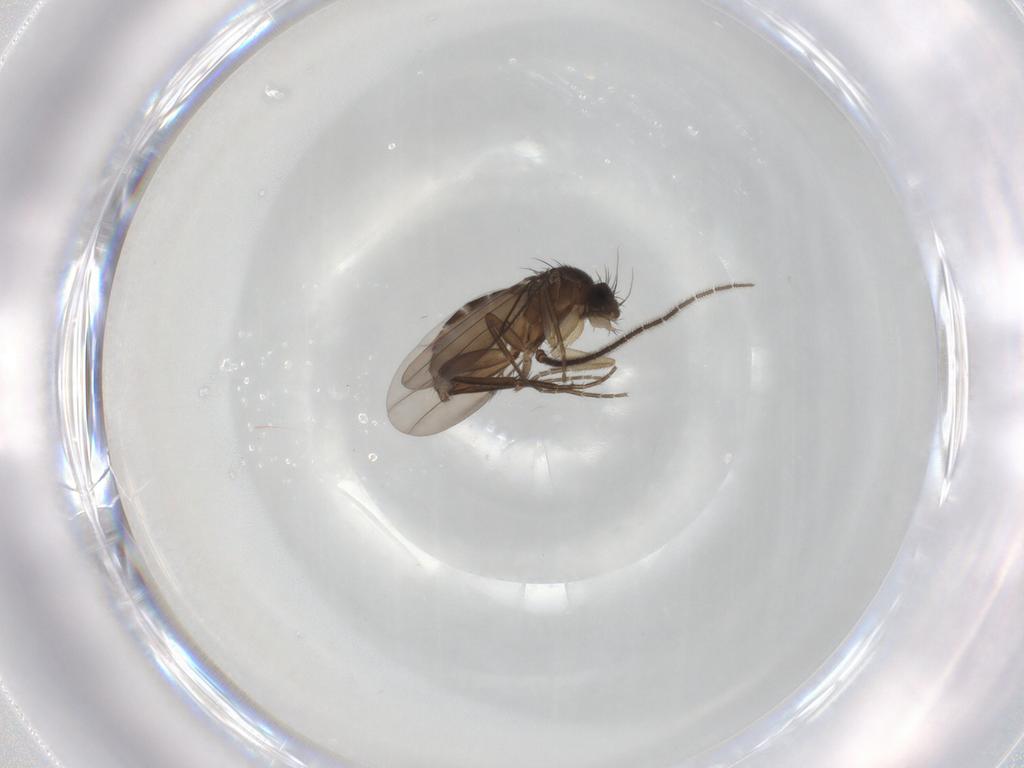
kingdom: Animalia
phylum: Arthropoda
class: Insecta
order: Diptera
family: Phoridae
